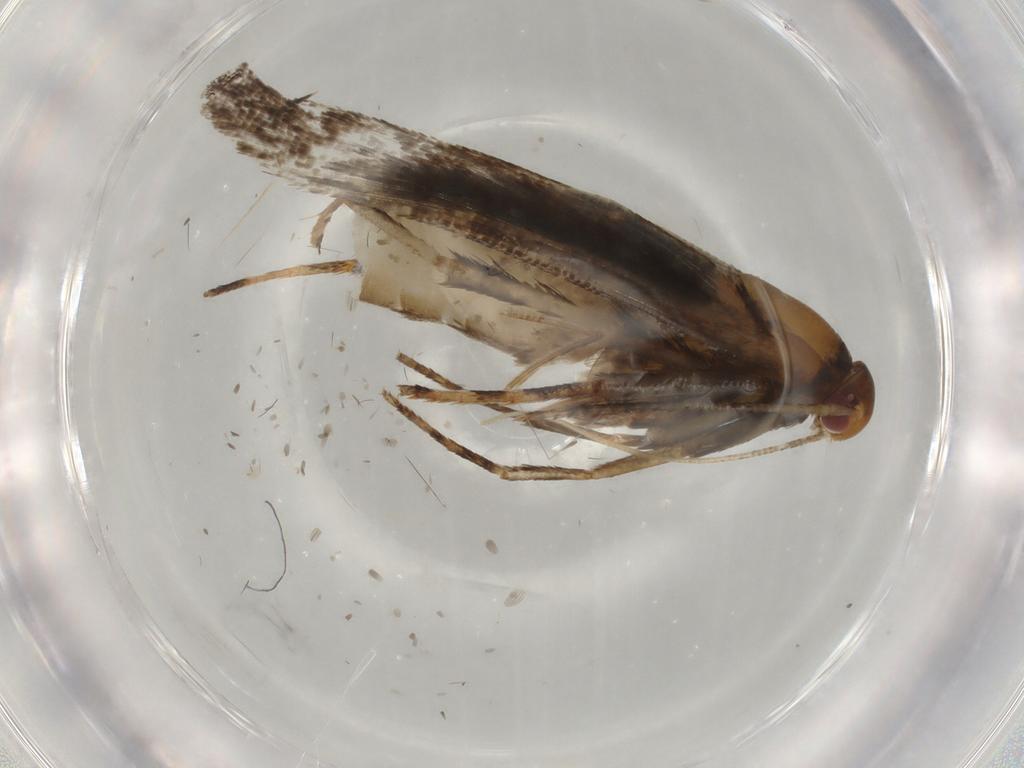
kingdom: Animalia
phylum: Arthropoda
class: Insecta
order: Lepidoptera
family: Gelechiidae
